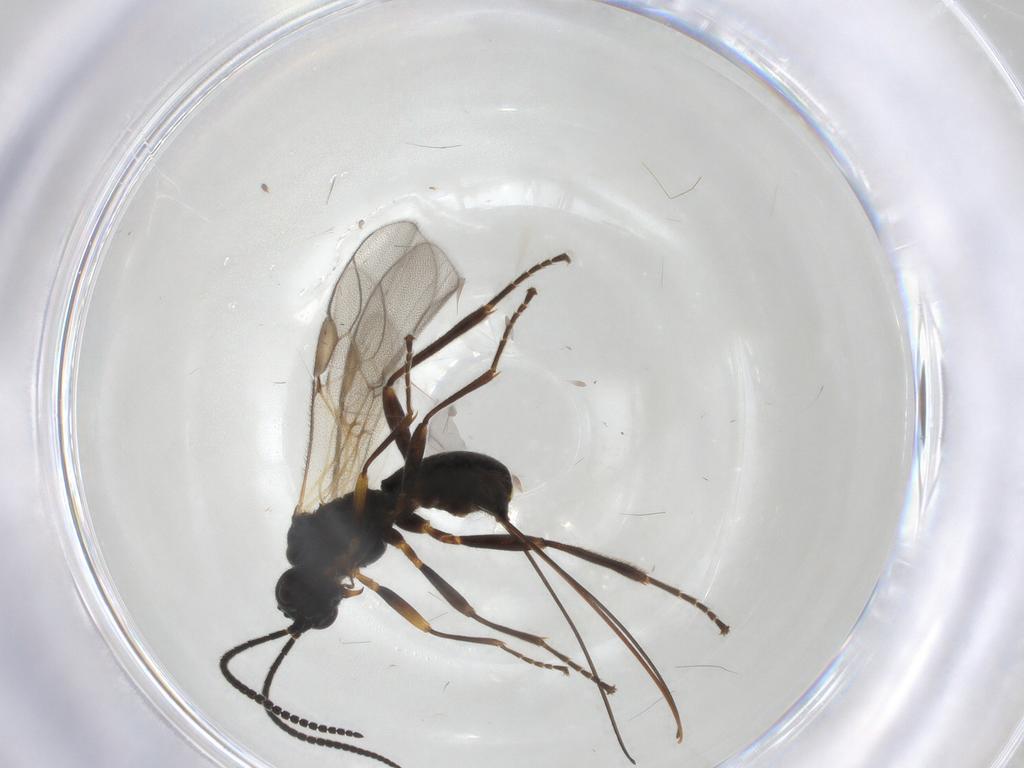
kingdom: Animalia
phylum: Arthropoda
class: Insecta
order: Hymenoptera
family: Braconidae
